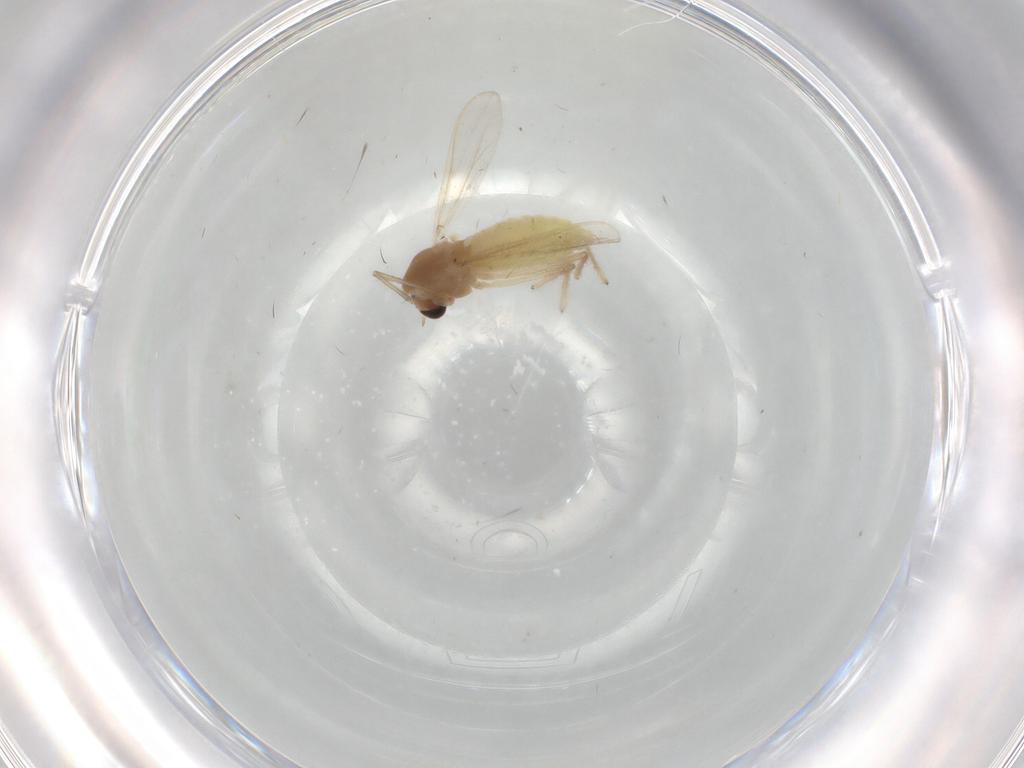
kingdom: Animalia
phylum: Arthropoda
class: Insecta
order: Diptera
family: Chironomidae
